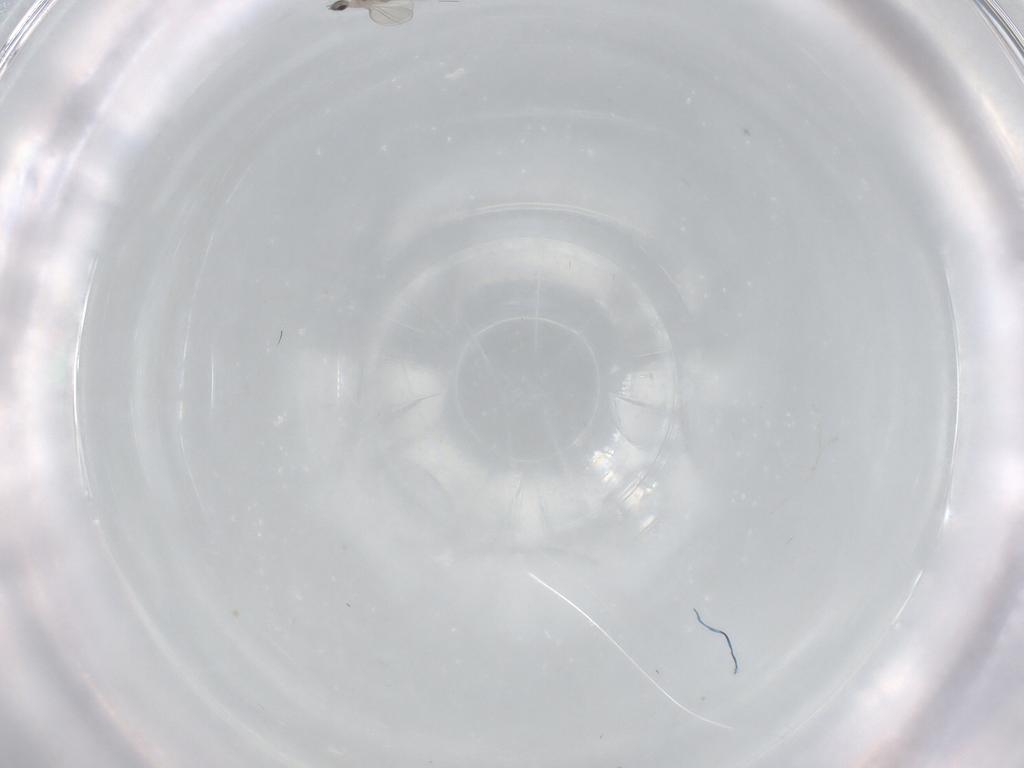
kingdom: Animalia
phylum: Arthropoda
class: Insecta
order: Diptera
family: Cecidomyiidae
